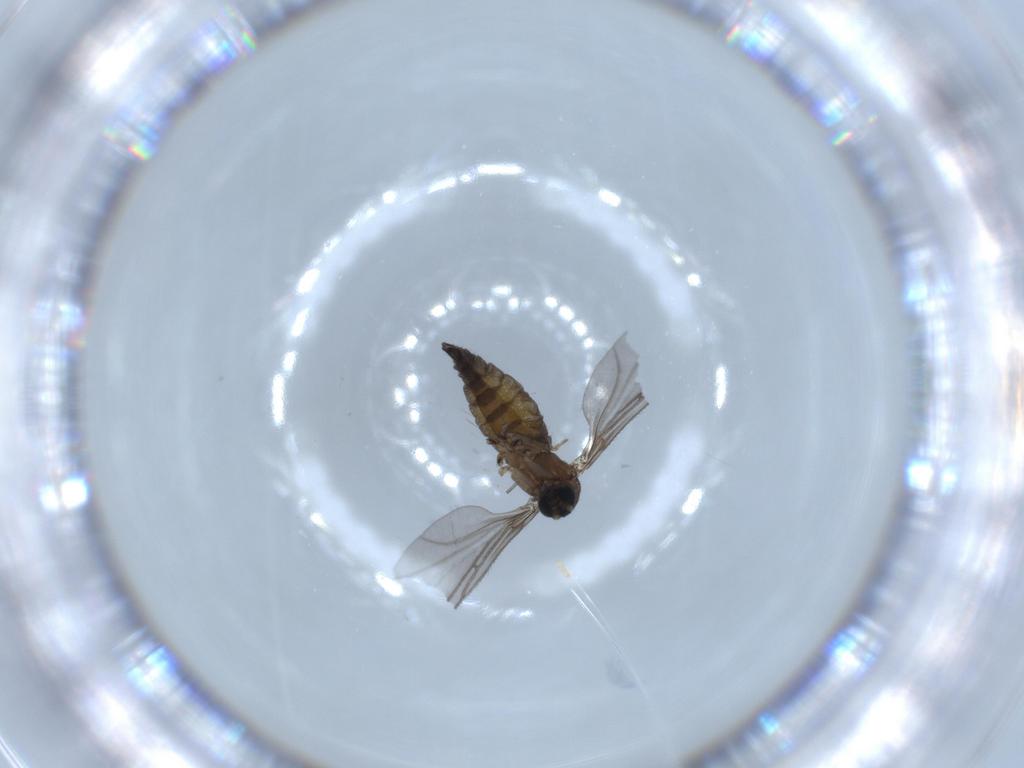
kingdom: Animalia
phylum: Arthropoda
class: Insecta
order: Diptera
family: Sciaridae
